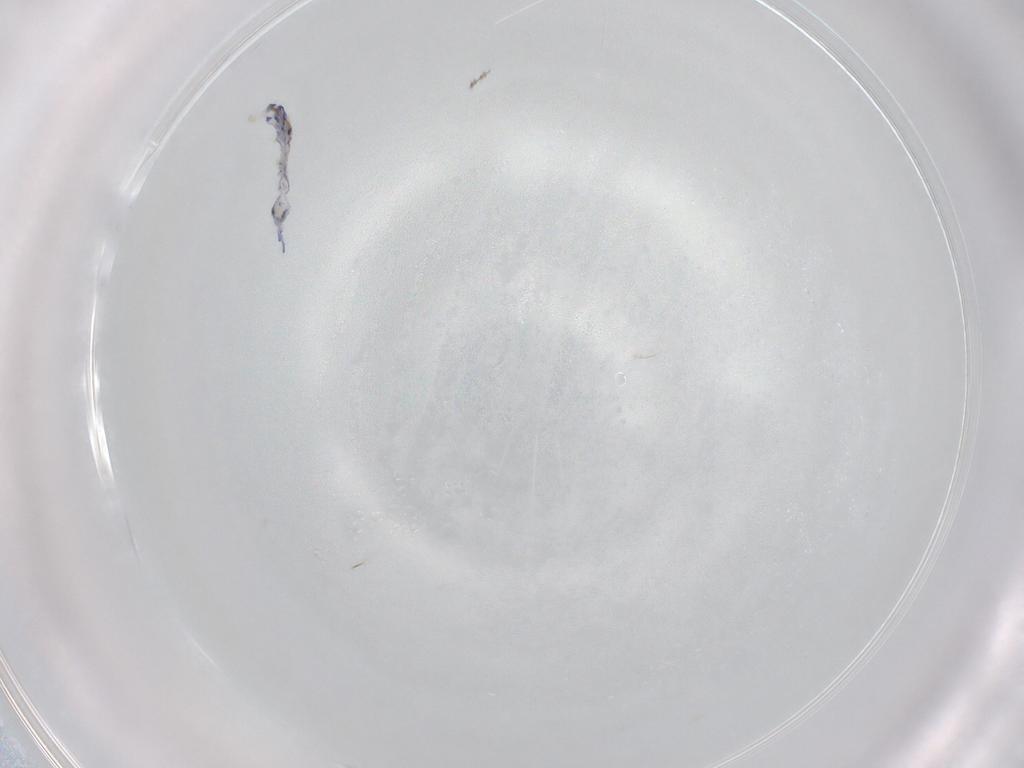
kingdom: Animalia
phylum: Arthropoda
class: Collembola
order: Entomobryomorpha
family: Entomobryidae
